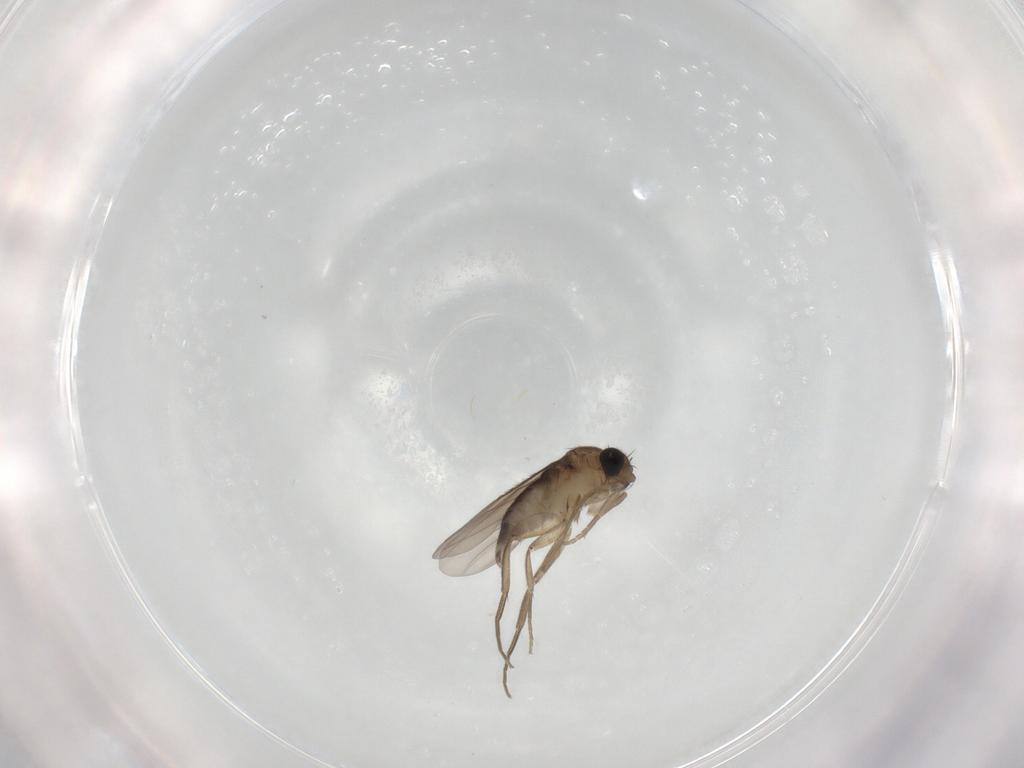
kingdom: Animalia
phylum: Arthropoda
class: Insecta
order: Diptera
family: Phoridae
